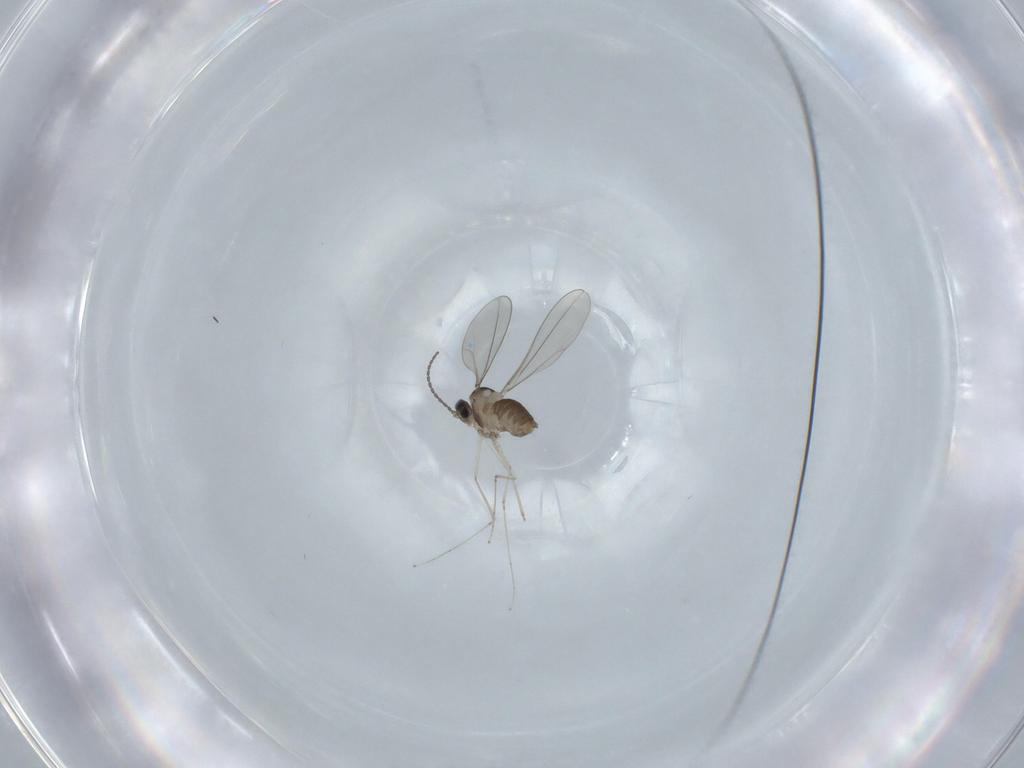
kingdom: Animalia
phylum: Arthropoda
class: Insecta
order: Diptera
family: Cecidomyiidae
